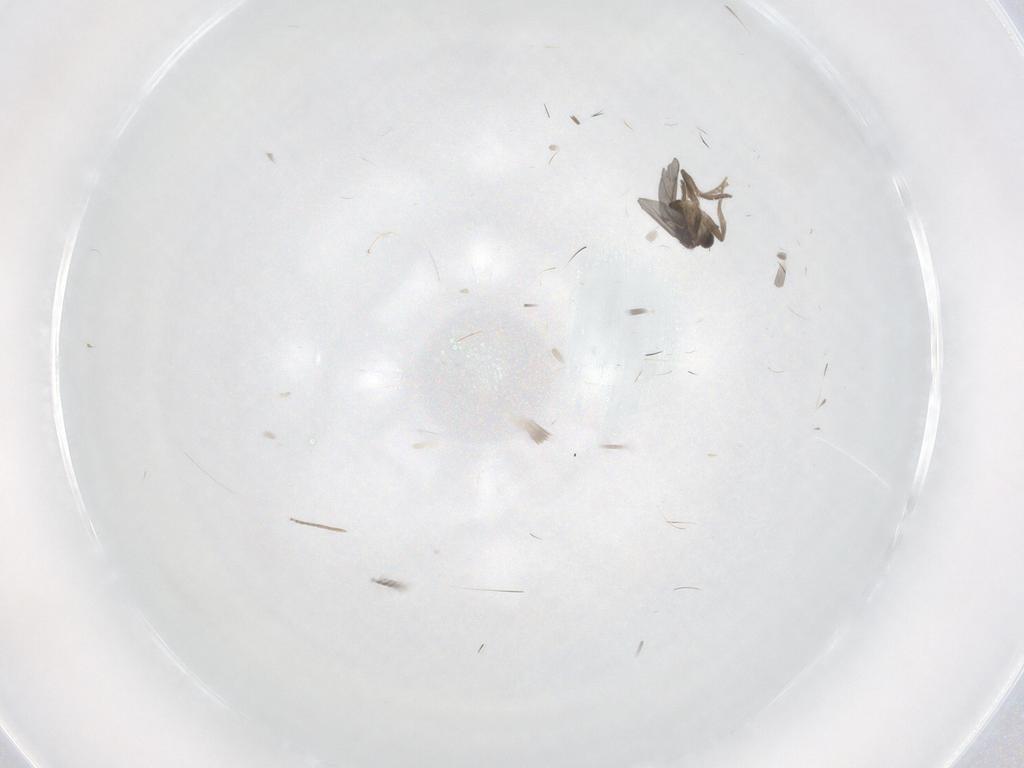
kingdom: Animalia
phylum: Arthropoda
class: Insecta
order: Diptera
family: Chironomidae
